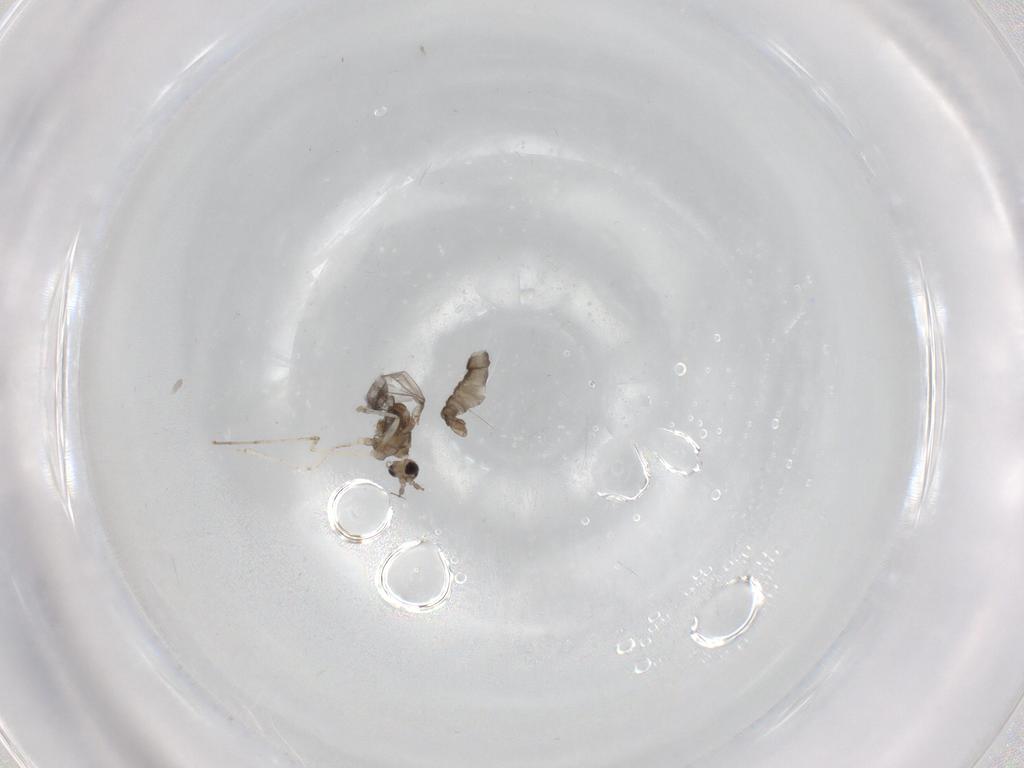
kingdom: Animalia
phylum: Arthropoda
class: Insecta
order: Diptera
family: Cecidomyiidae
